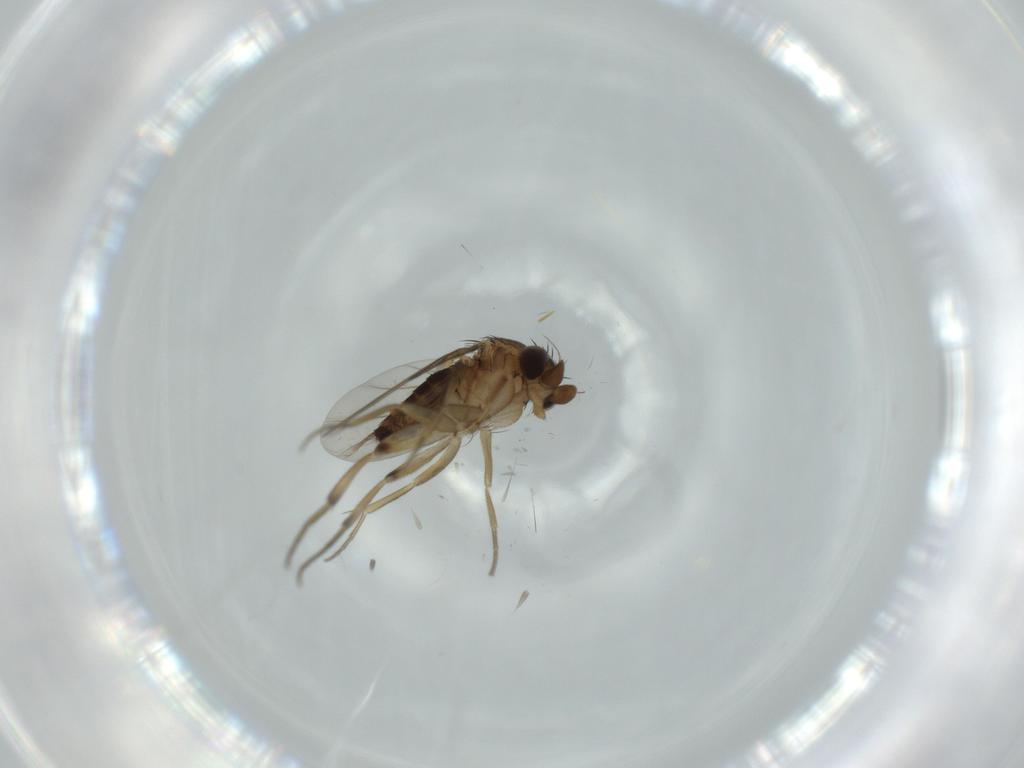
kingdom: Animalia
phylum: Arthropoda
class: Insecta
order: Diptera
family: Phoridae
